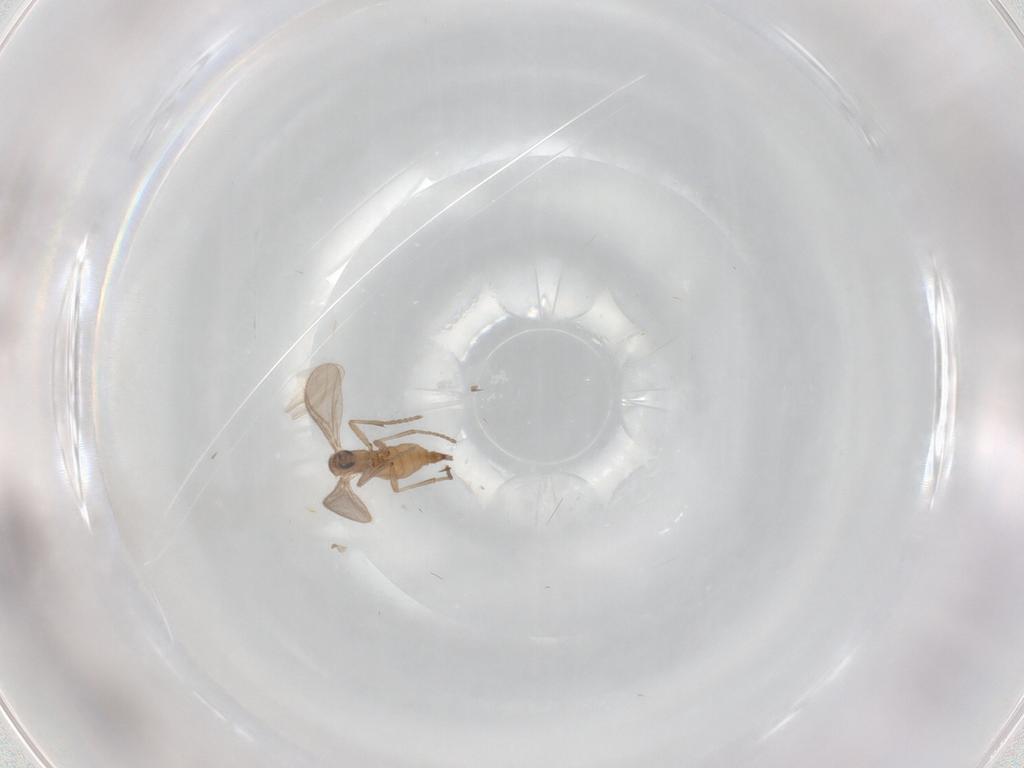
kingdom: Animalia
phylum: Arthropoda
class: Insecta
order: Diptera
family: Sciaridae
